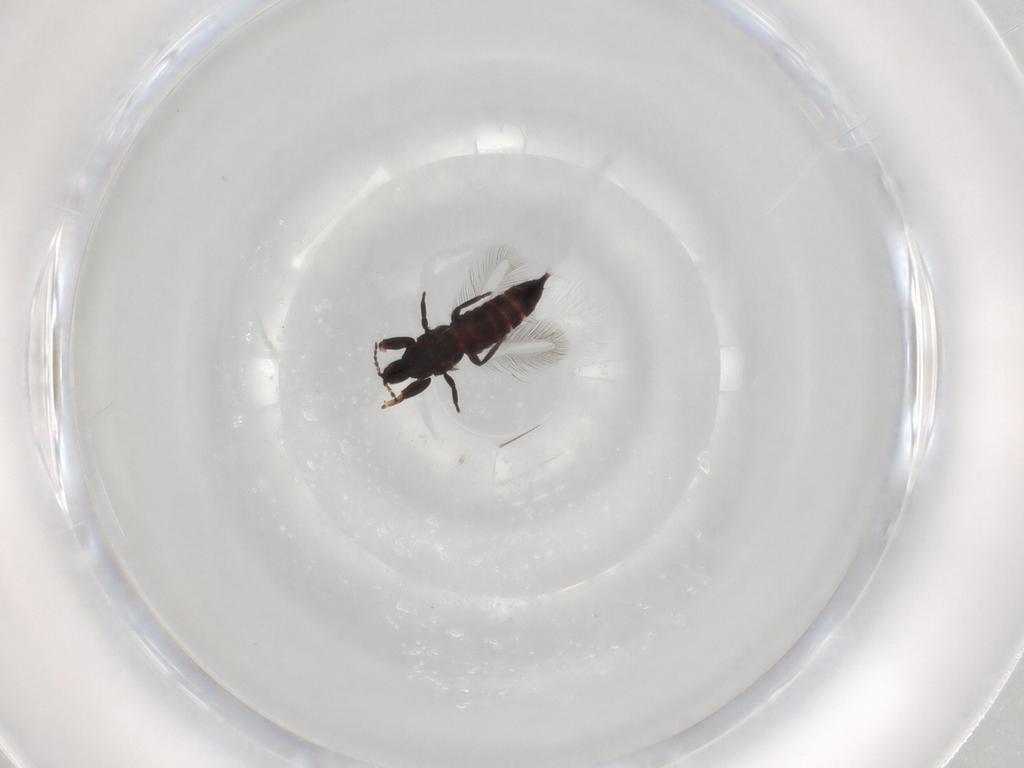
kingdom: Animalia
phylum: Arthropoda
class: Insecta
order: Thysanoptera
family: Phlaeothripidae
